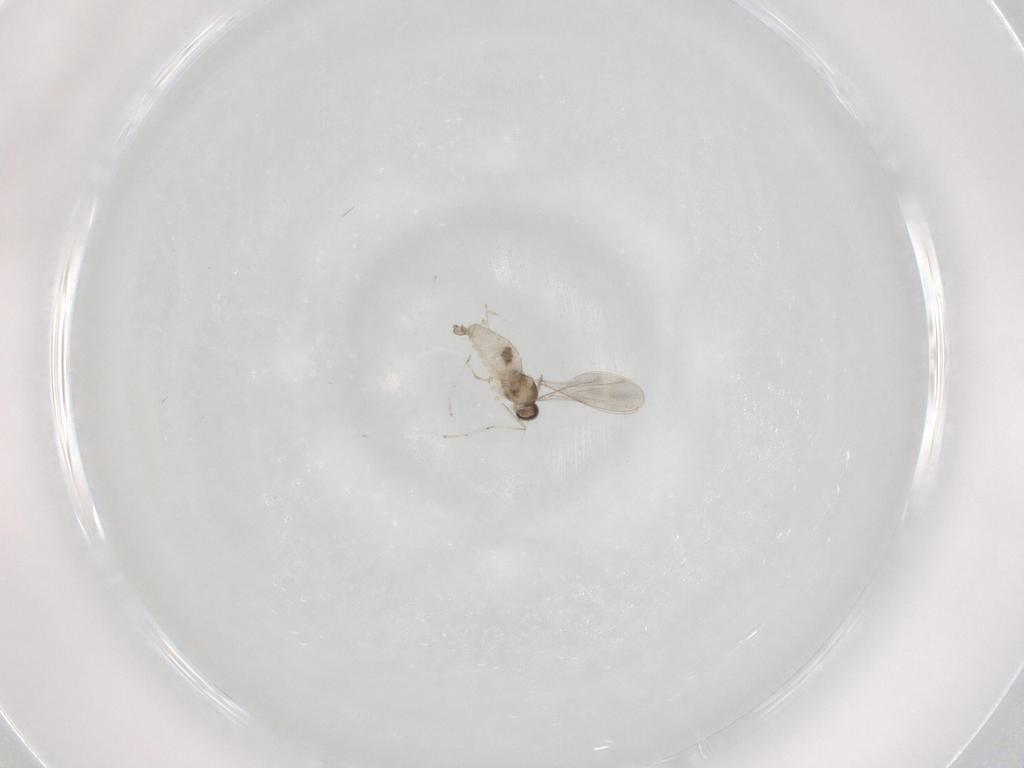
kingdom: Animalia
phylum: Arthropoda
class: Insecta
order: Diptera
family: Cecidomyiidae
